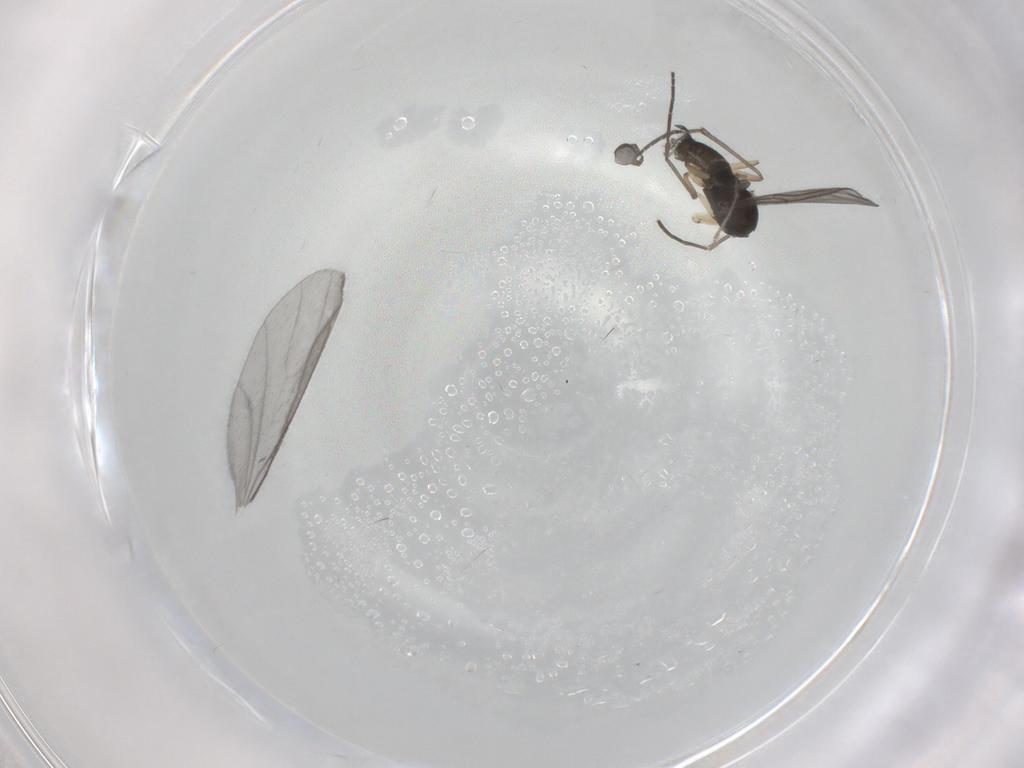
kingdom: Animalia
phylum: Arthropoda
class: Insecta
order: Diptera
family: Sciaridae
